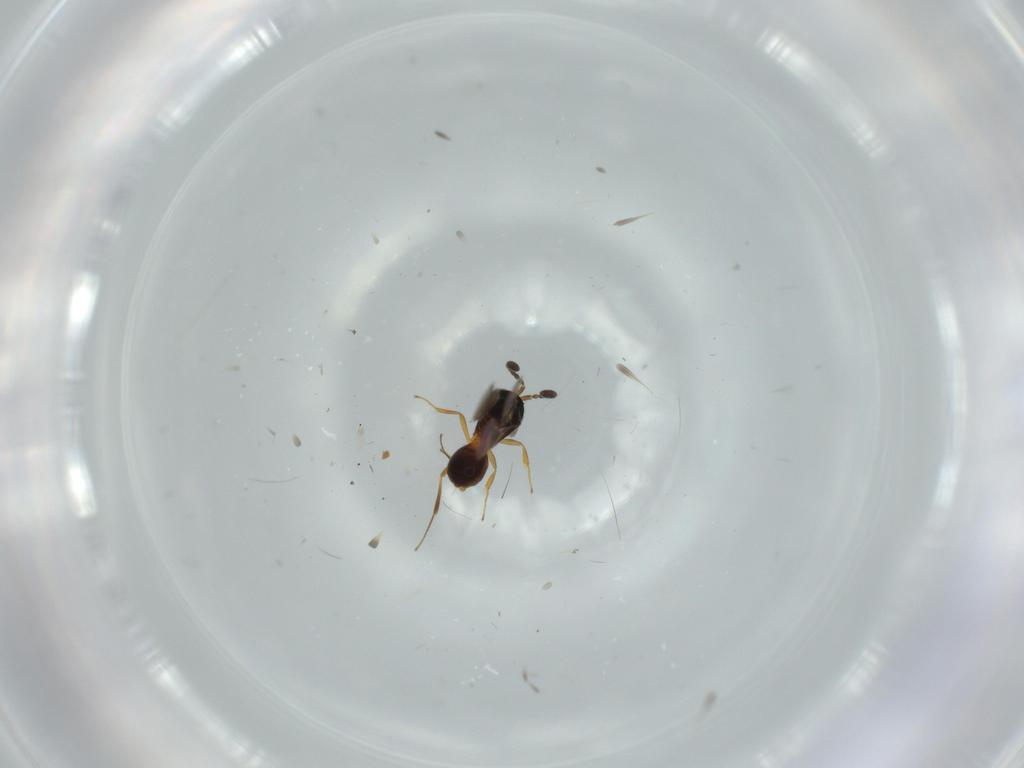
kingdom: Animalia
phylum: Arthropoda
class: Insecta
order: Hymenoptera
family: Scelionidae
